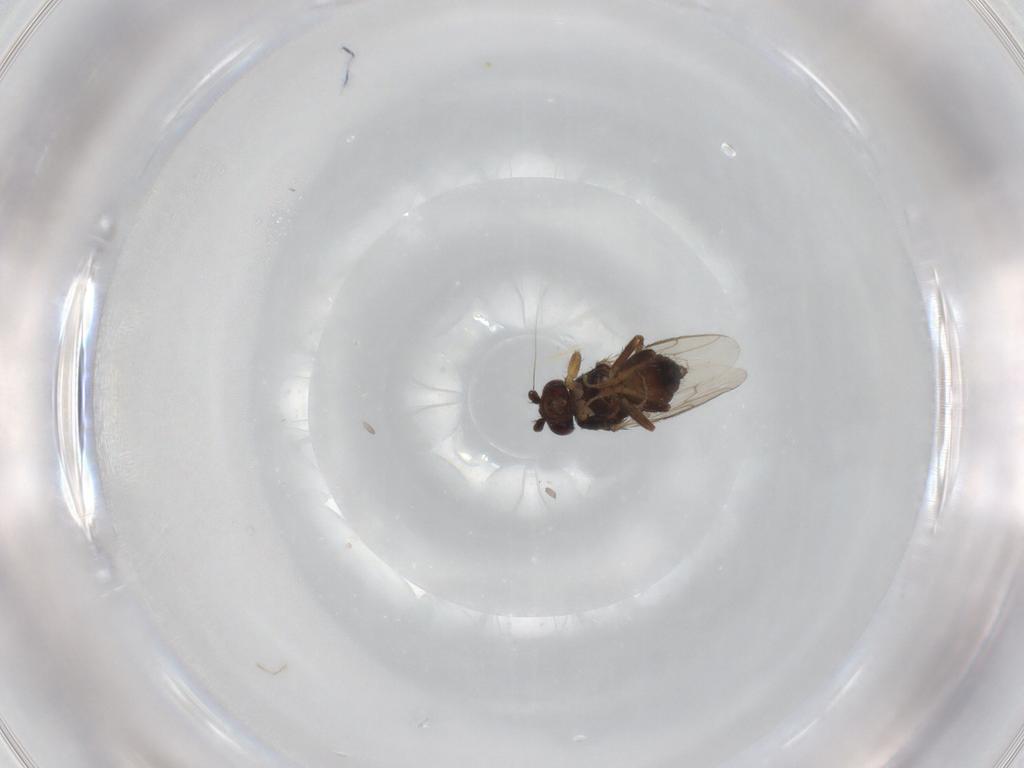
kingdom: Animalia
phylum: Arthropoda
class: Insecta
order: Diptera
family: Sphaeroceridae
